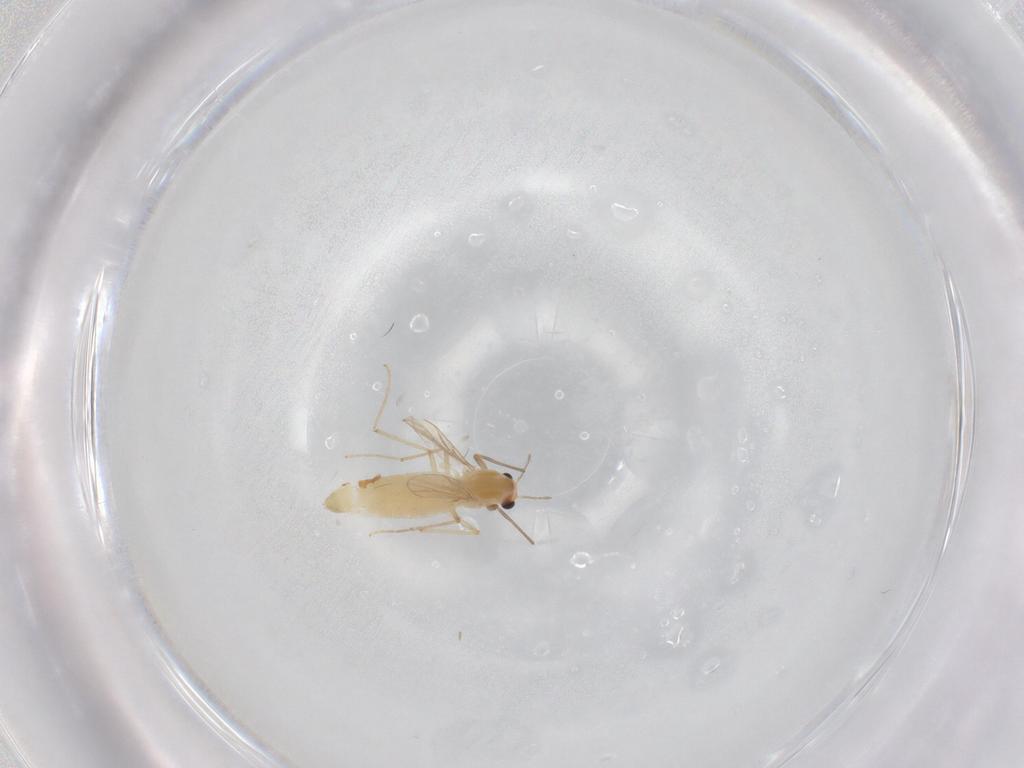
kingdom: Animalia
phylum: Arthropoda
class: Insecta
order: Diptera
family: Chironomidae
